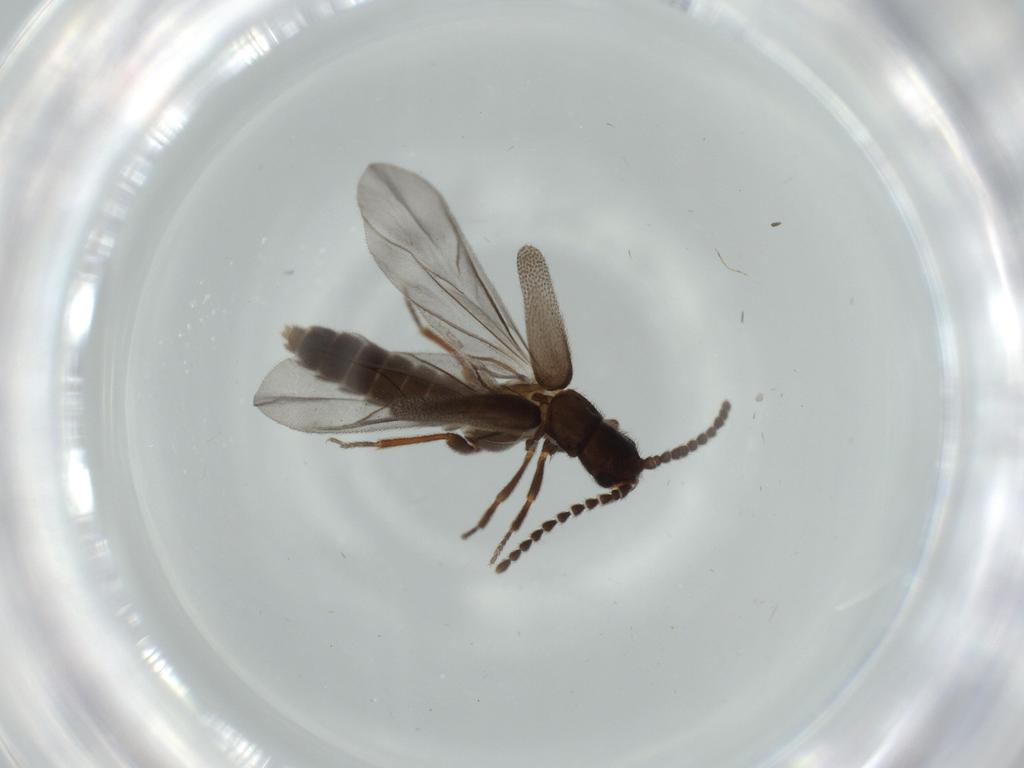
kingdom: Animalia
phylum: Arthropoda
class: Insecta
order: Coleoptera
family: Omethidae
